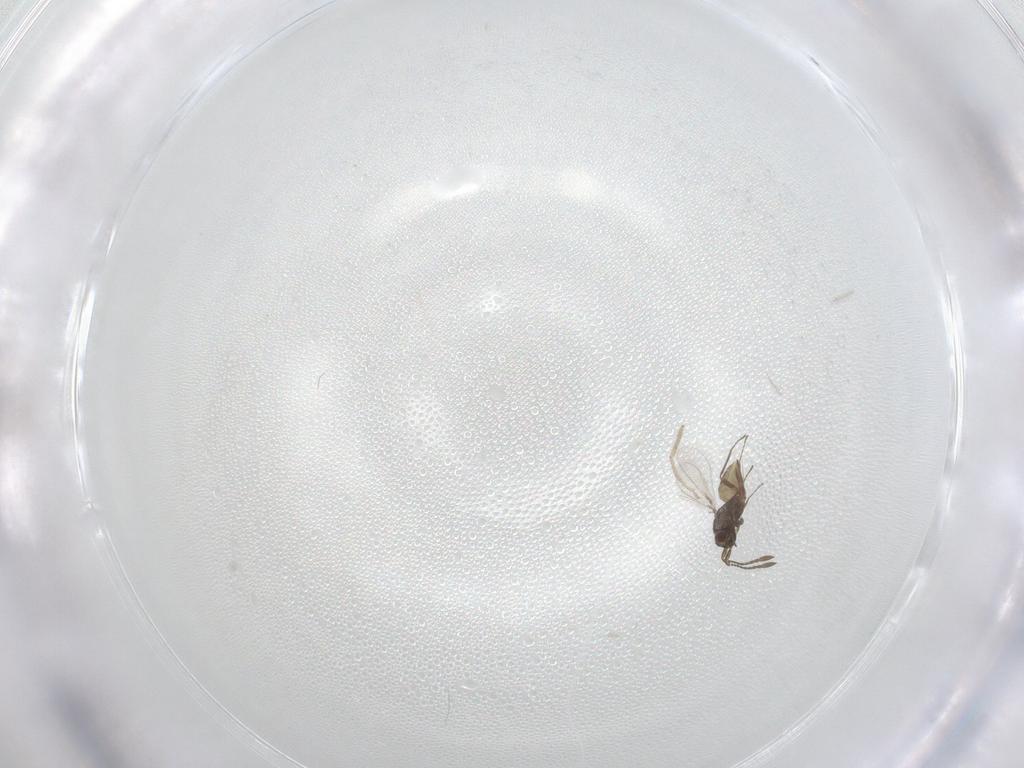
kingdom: Animalia
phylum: Arthropoda
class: Insecta
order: Hymenoptera
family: Mymaridae
